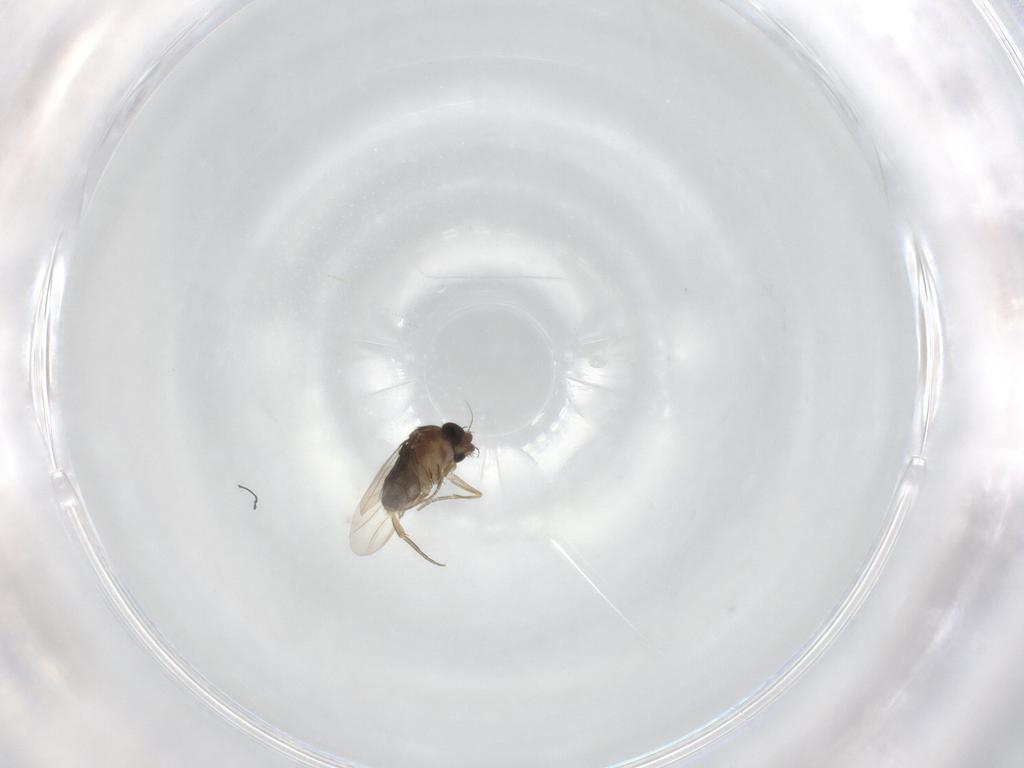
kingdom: Animalia
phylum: Arthropoda
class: Insecta
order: Diptera
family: Phoridae
